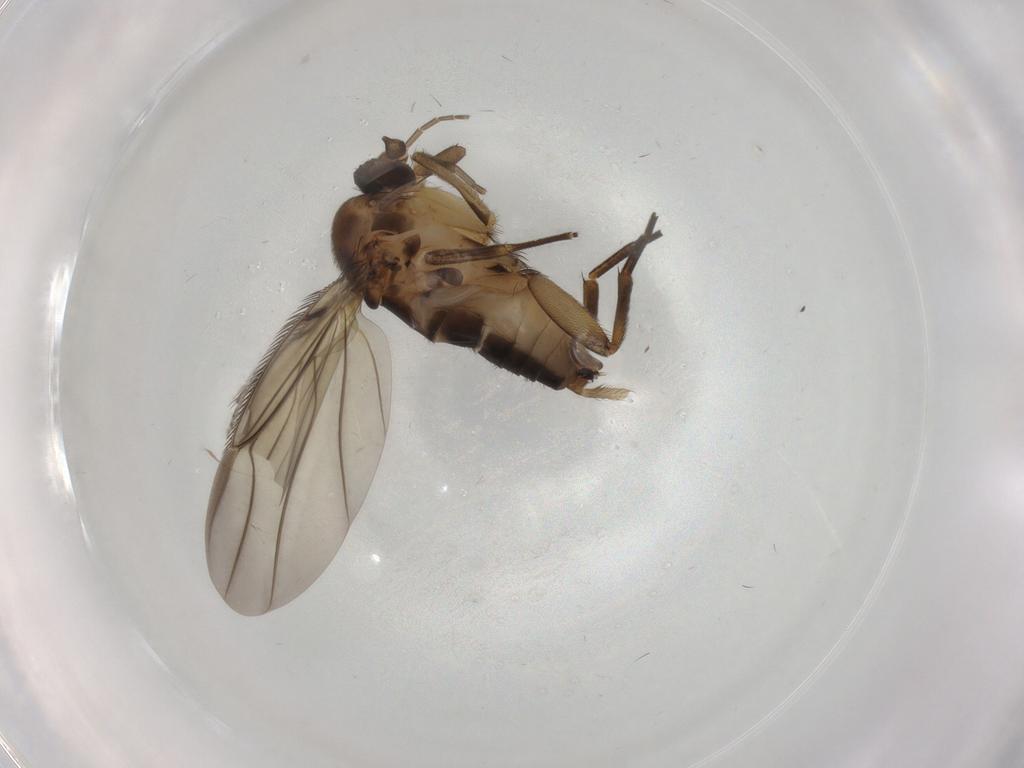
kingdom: Animalia
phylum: Arthropoda
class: Insecta
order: Diptera
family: Phoridae
